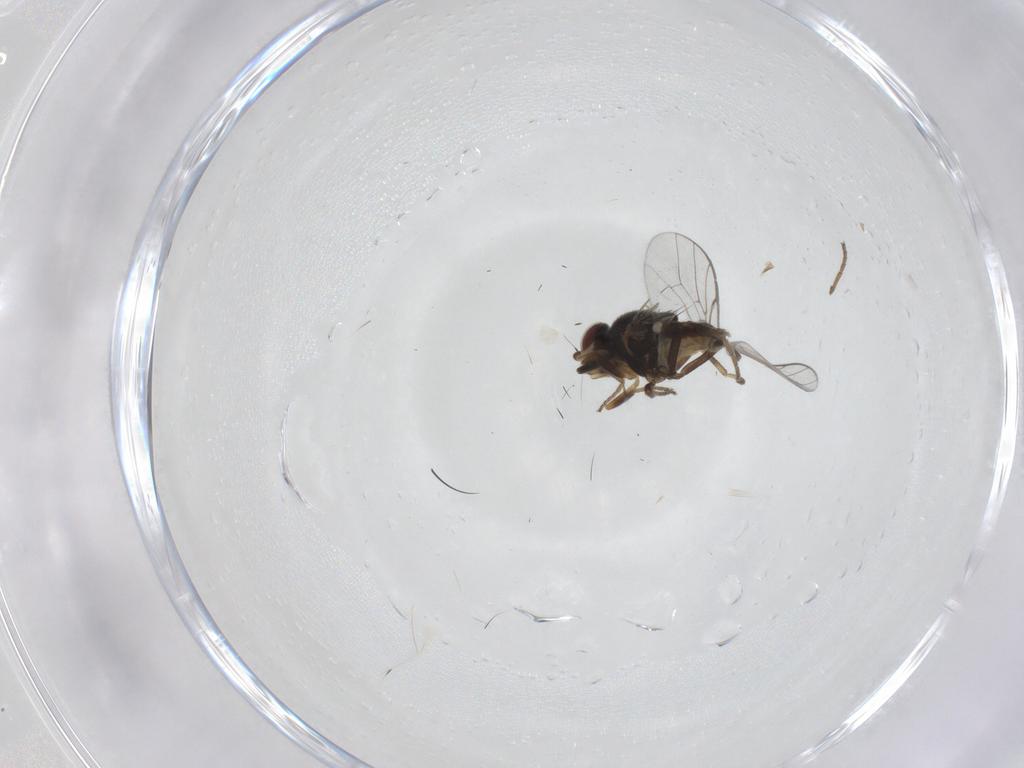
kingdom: Animalia
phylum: Arthropoda
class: Insecta
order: Diptera
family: Chloropidae
